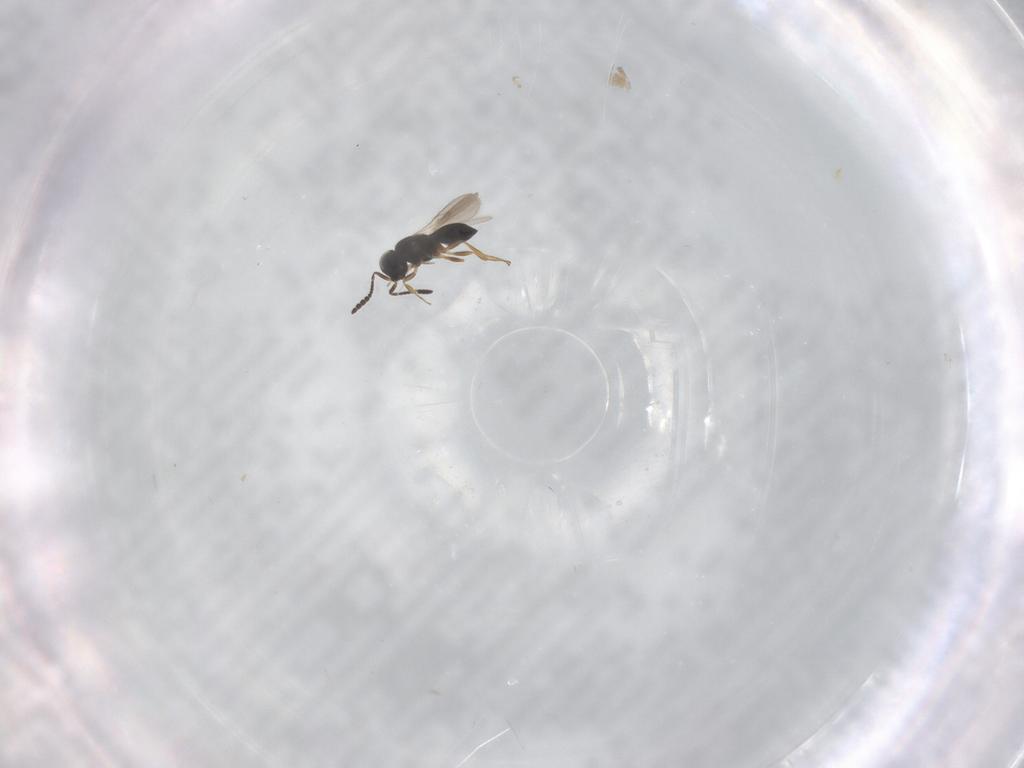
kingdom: Animalia
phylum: Arthropoda
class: Insecta
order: Hymenoptera
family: Scelionidae
